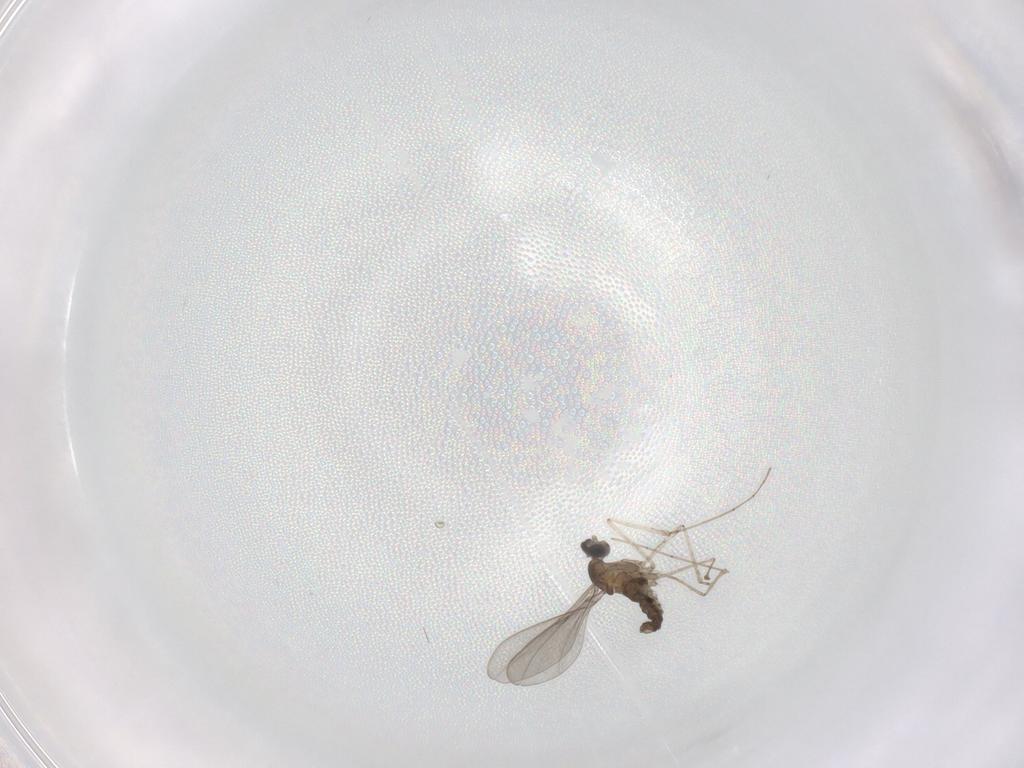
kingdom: Animalia
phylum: Arthropoda
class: Insecta
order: Diptera
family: Cecidomyiidae
